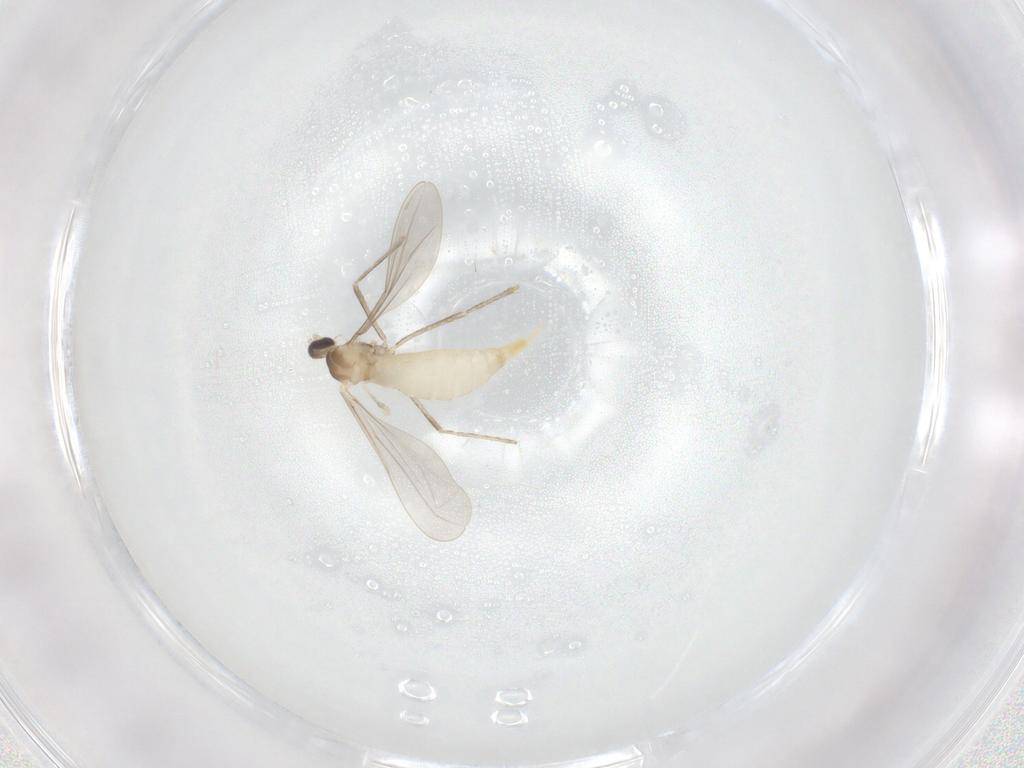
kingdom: Animalia
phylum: Arthropoda
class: Insecta
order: Diptera
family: Cecidomyiidae
